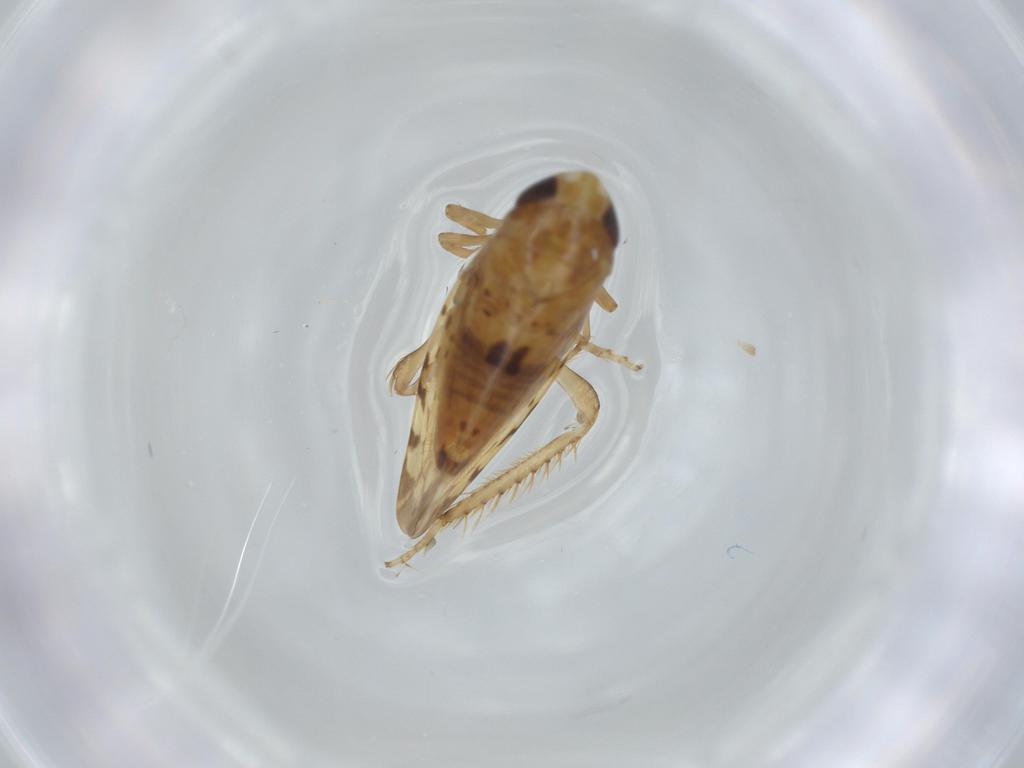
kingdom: Animalia
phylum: Arthropoda
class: Insecta
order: Hemiptera
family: Cicadellidae
